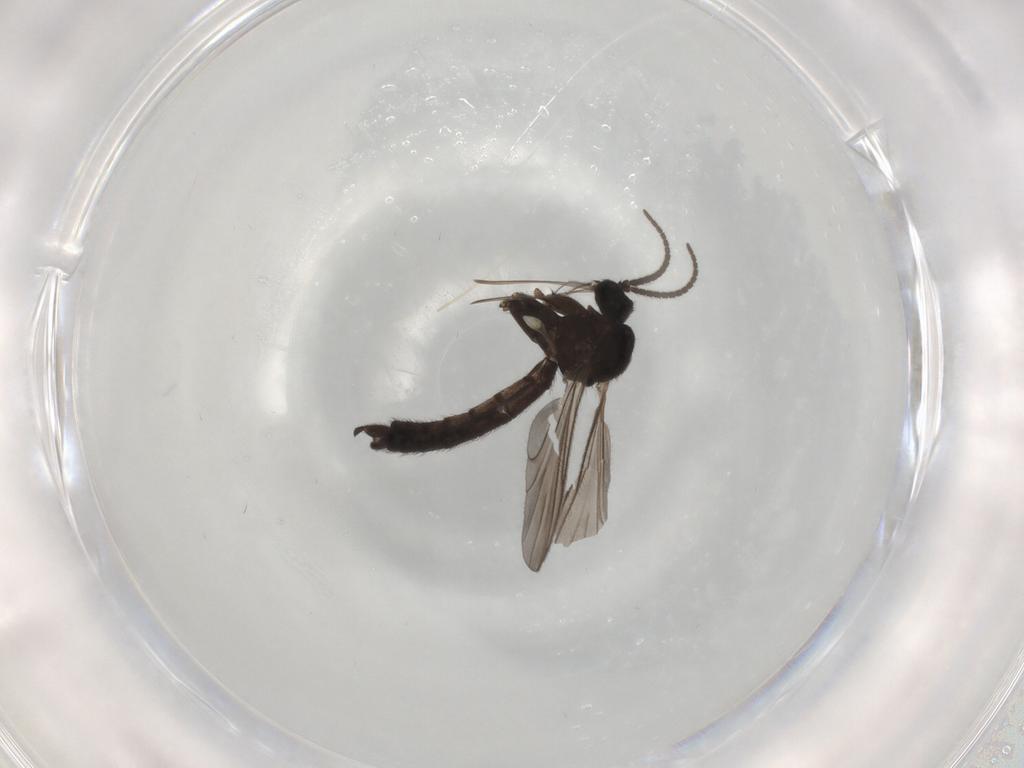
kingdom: Animalia
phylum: Arthropoda
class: Insecta
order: Diptera
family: Keroplatidae
